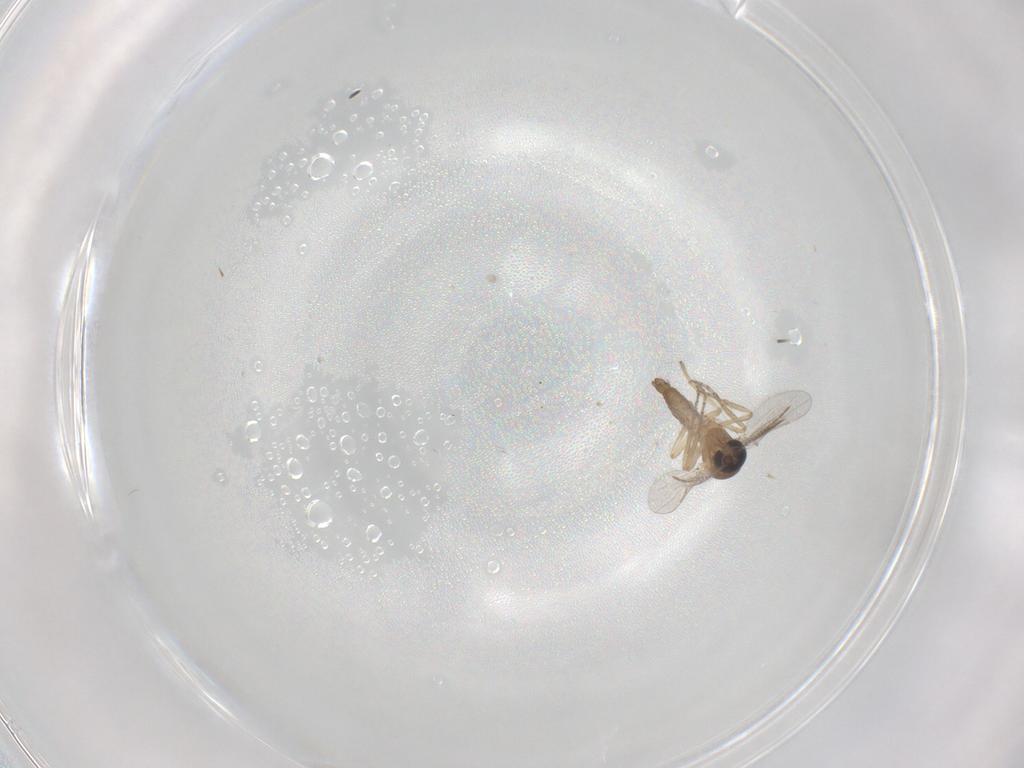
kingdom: Animalia
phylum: Arthropoda
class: Insecta
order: Diptera
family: Ceratopogonidae
